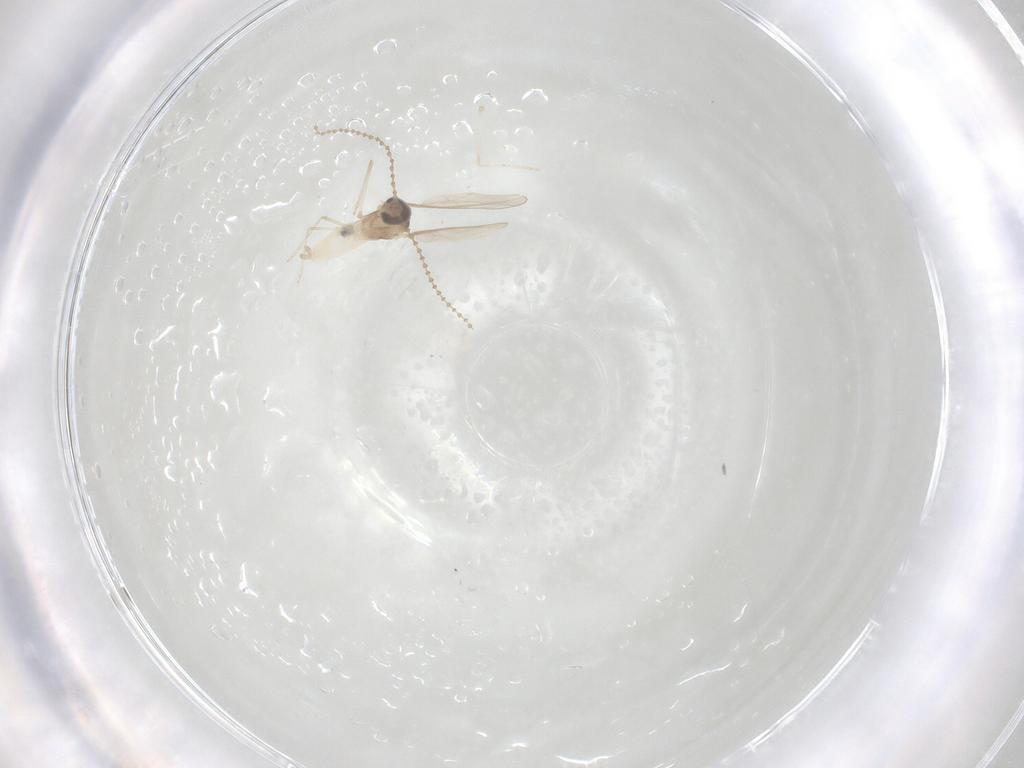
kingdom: Animalia
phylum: Arthropoda
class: Insecta
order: Diptera
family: Cecidomyiidae
